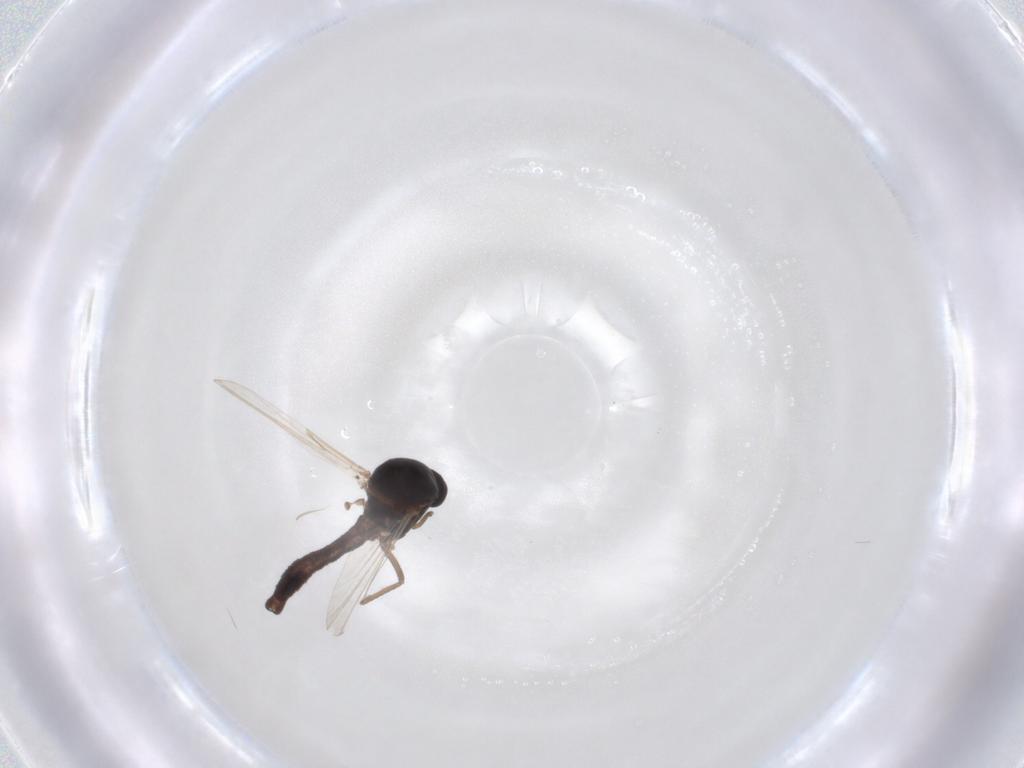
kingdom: Animalia
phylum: Arthropoda
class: Insecta
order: Diptera
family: Ceratopogonidae
